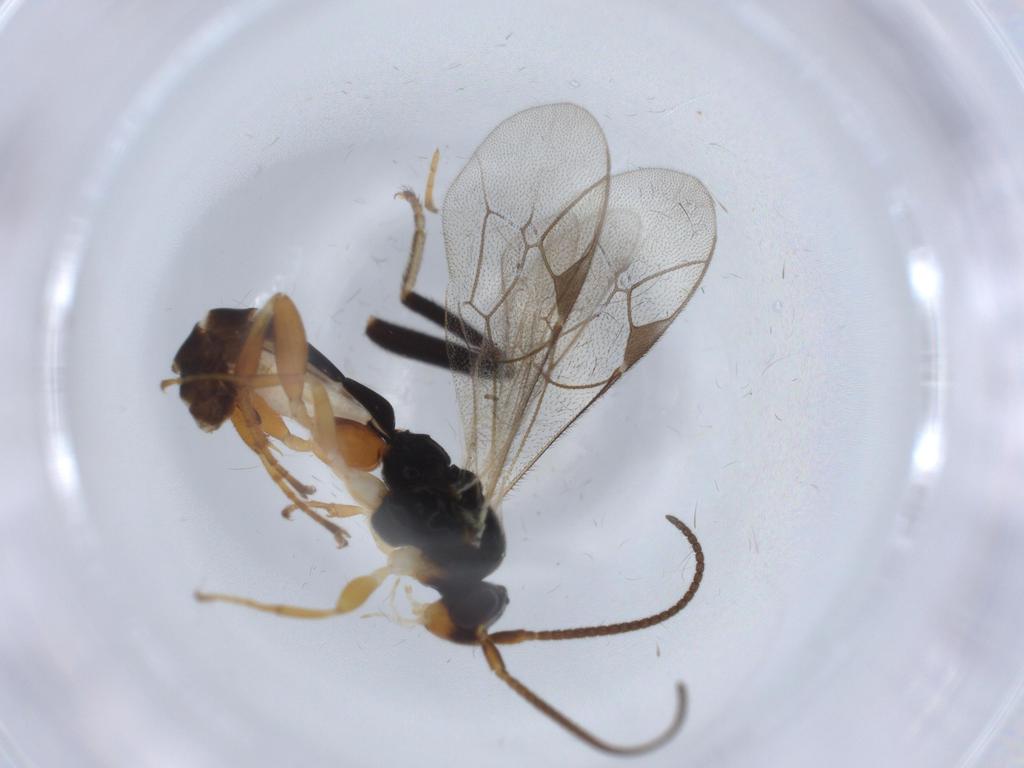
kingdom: Animalia
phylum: Arthropoda
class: Insecta
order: Hymenoptera
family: Ichneumonidae
